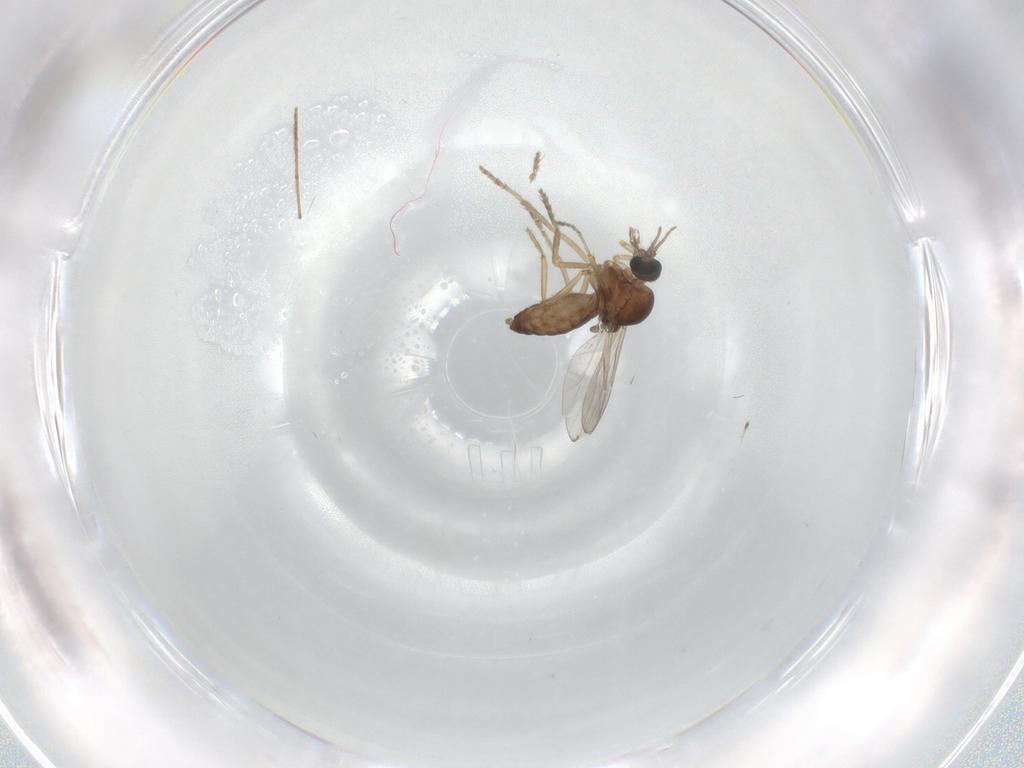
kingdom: Animalia
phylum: Arthropoda
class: Insecta
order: Diptera
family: Ceratopogonidae
